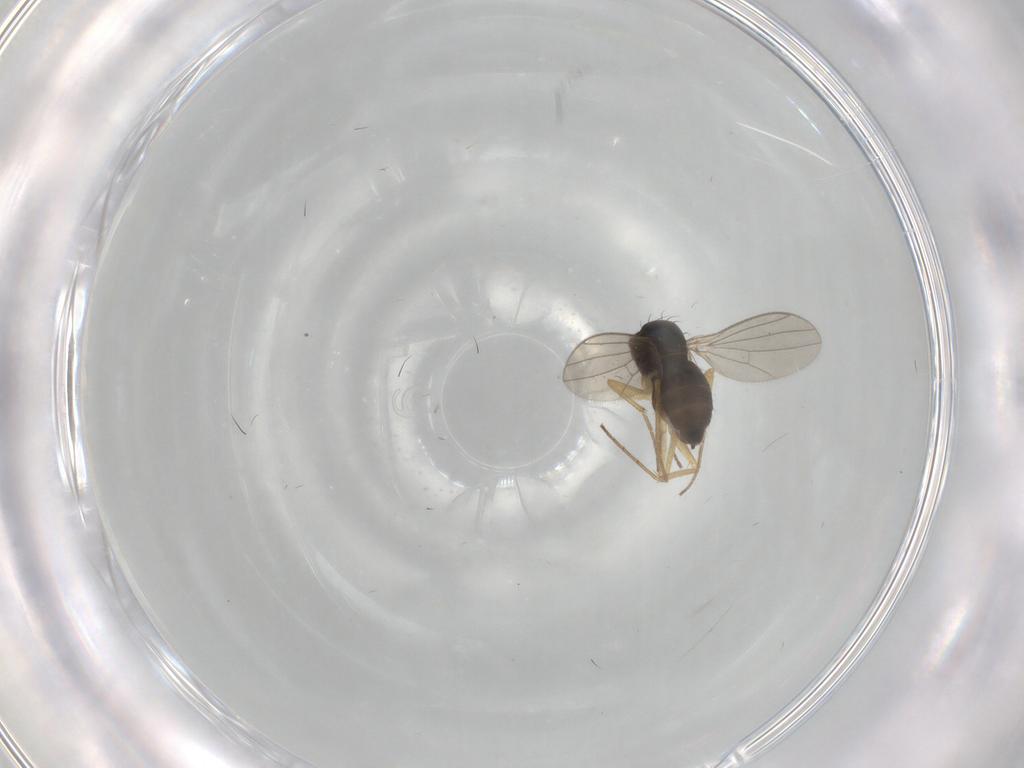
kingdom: Animalia
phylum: Arthropoda
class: Insecta
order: Diptera
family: Dolichopodidae
